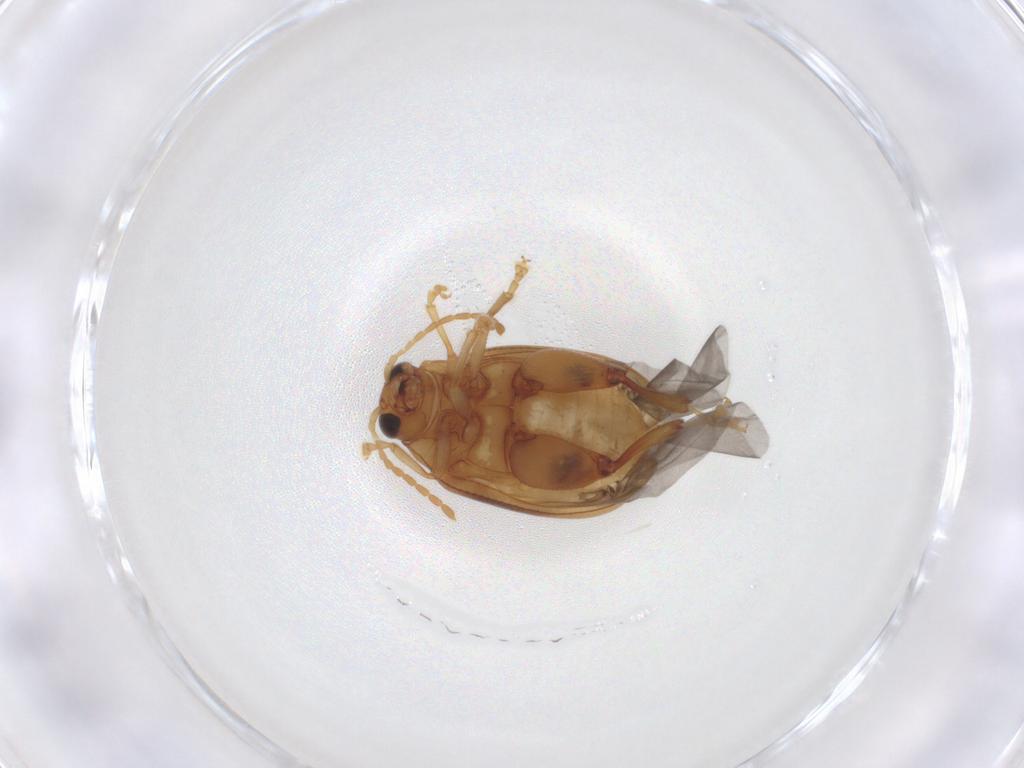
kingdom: Animalia
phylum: Arthropoda
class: Insecta
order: Coleoptera
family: Chrysomelidae
